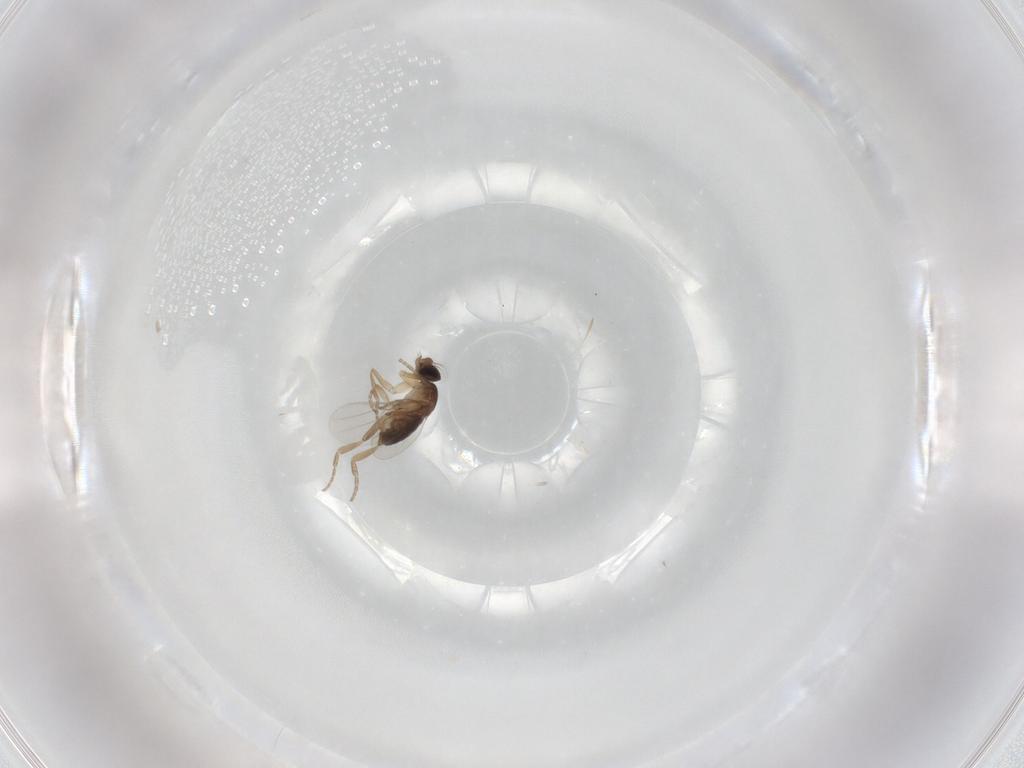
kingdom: Animalia
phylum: Arthropoda
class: Insecta
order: Diptera
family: Phoridae
